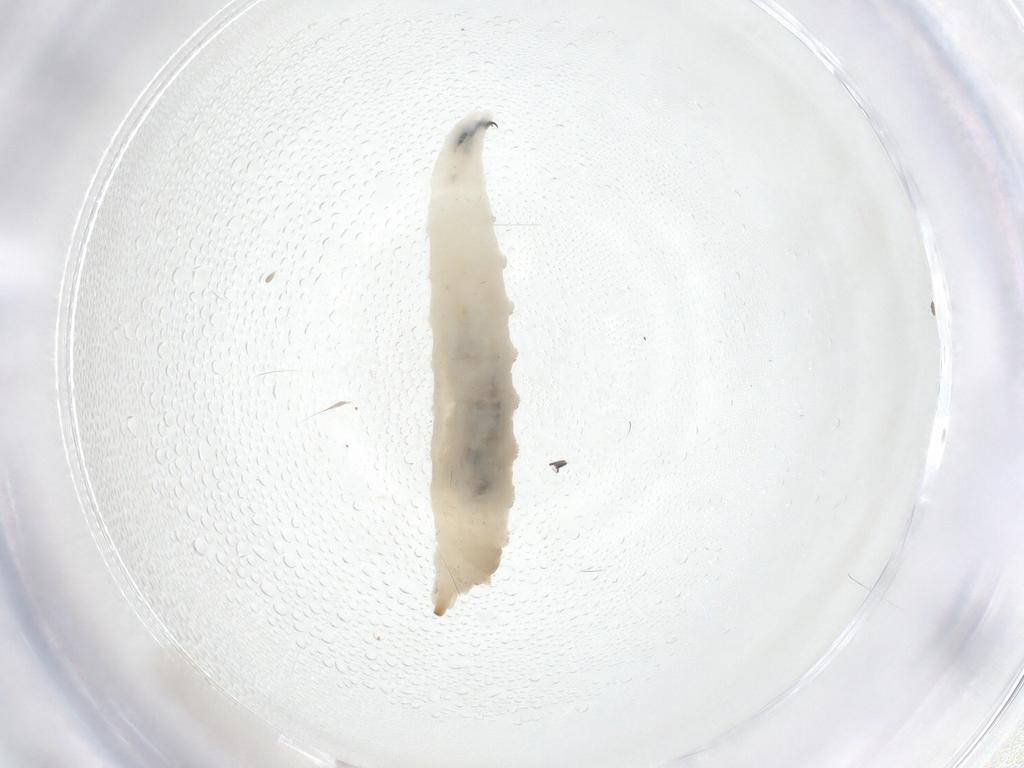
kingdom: Animalia
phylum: Arthropoda
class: Insecta
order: Diptera
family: Limoniidae
